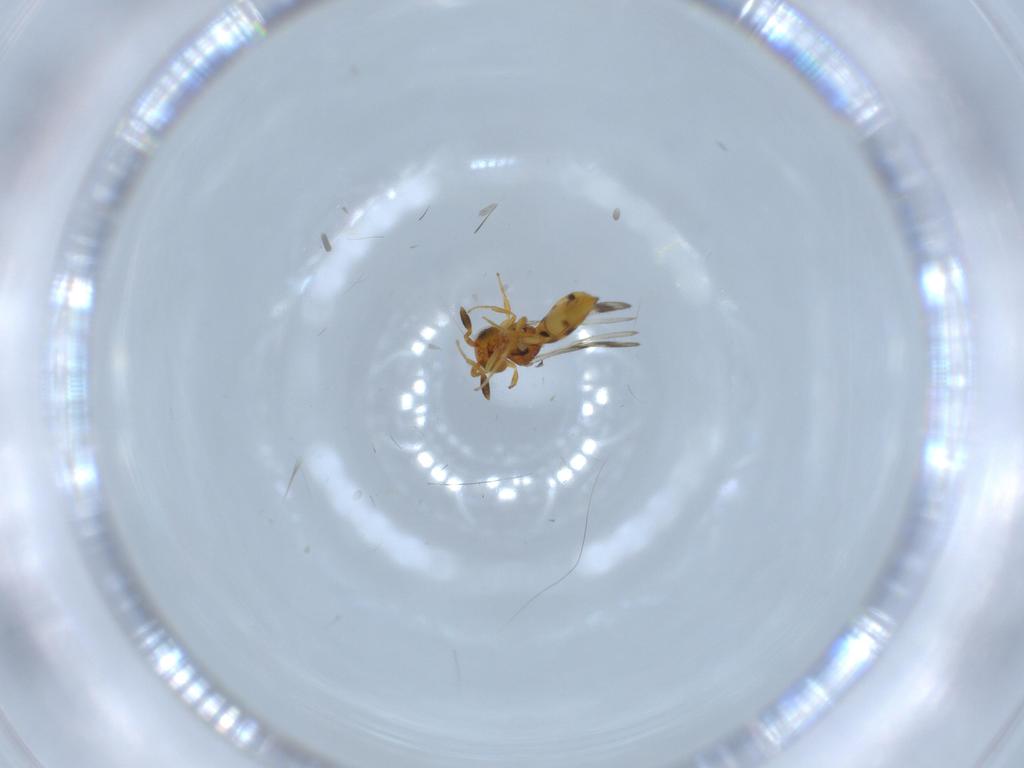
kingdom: Animalia
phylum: Arthropoda
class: Insecta
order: Hymenoptera
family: Scelionidae
